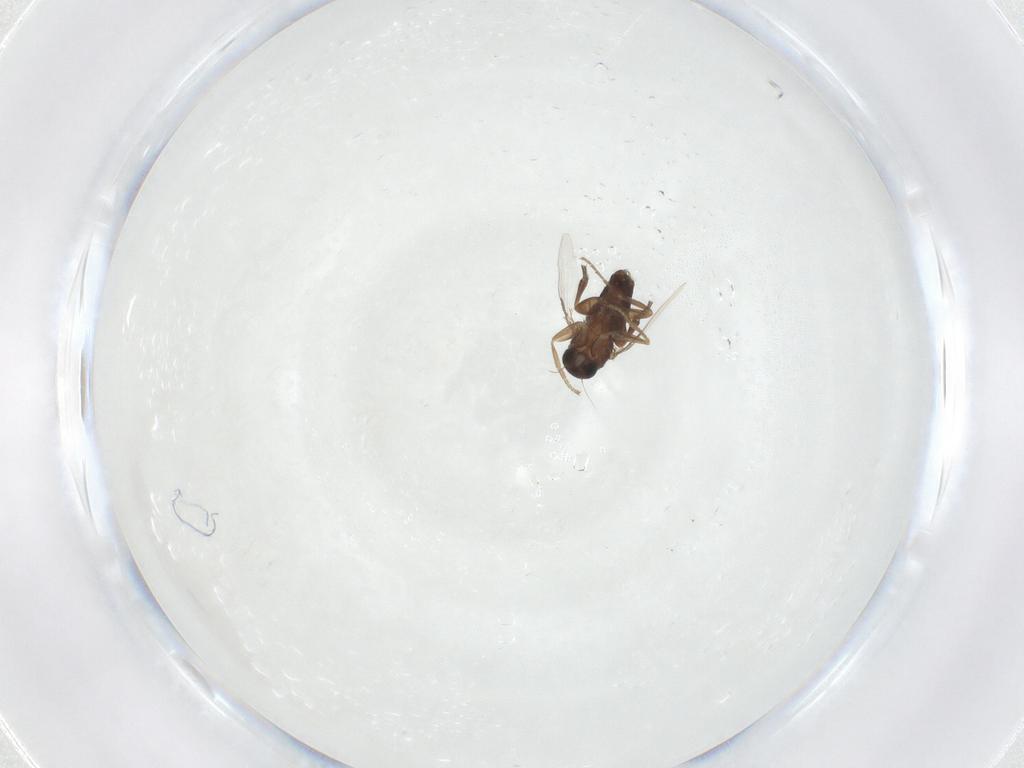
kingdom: Animalia
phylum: Arthropoda
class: Insecta
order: Diptera
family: Phoridae
